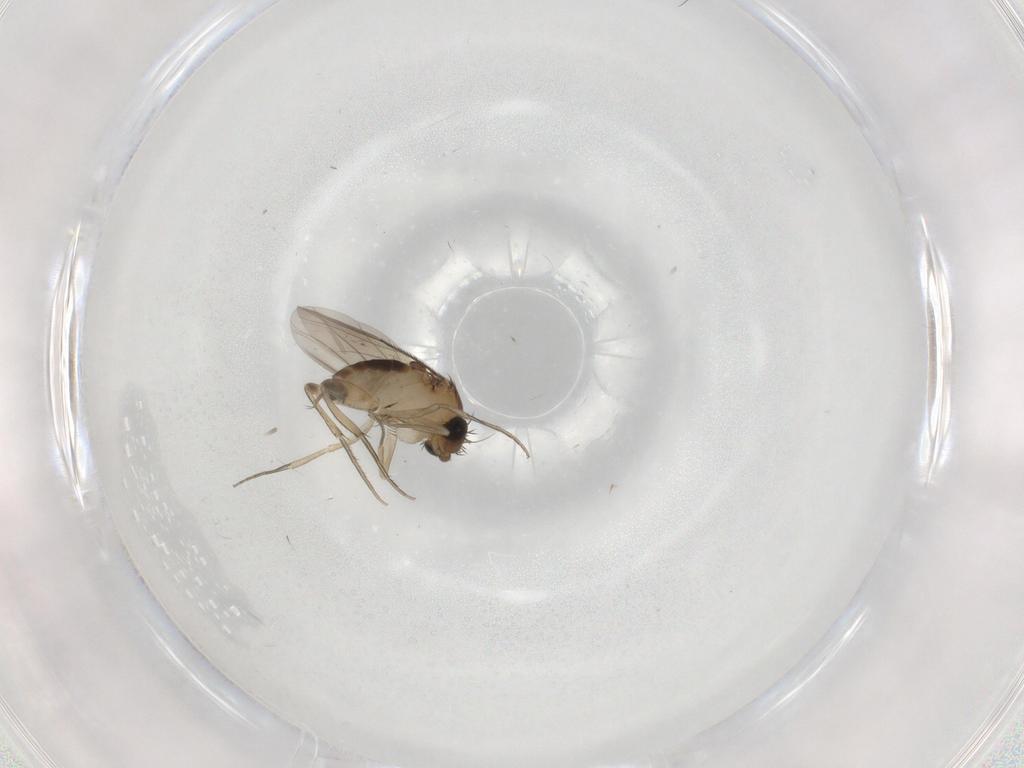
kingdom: Animalia
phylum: Arthropoda
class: Insecta
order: Diptera
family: Phoridae
